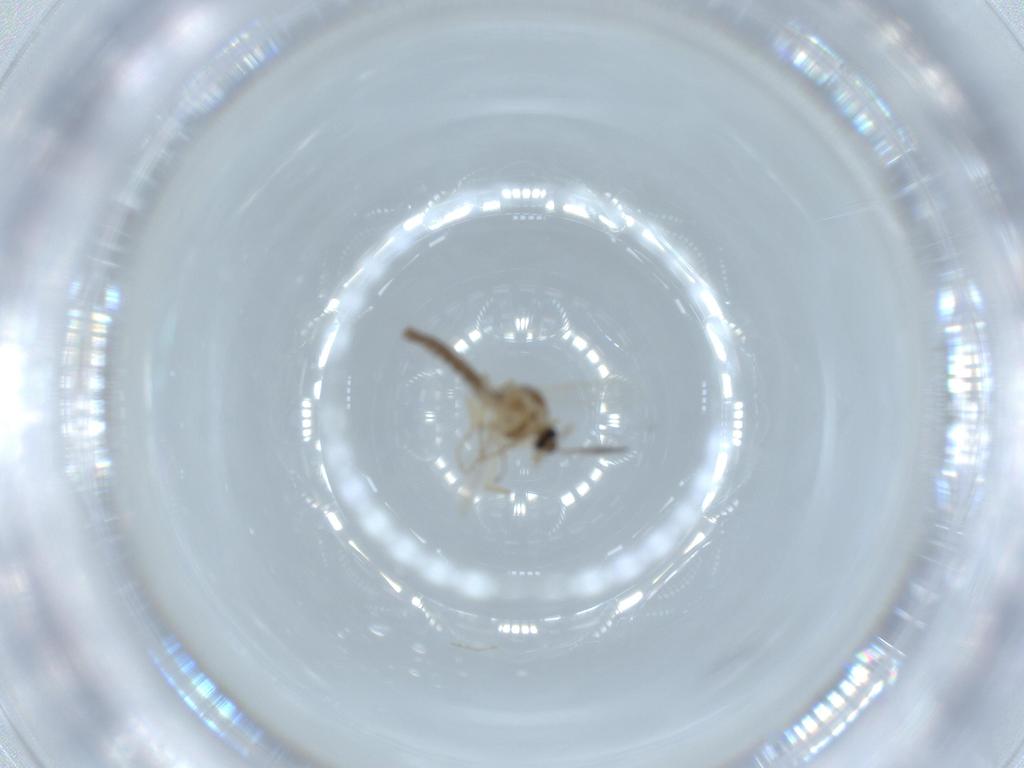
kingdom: Animalia
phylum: Arthropoda
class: Insecta
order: Diptera
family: Ceratopogonidae
